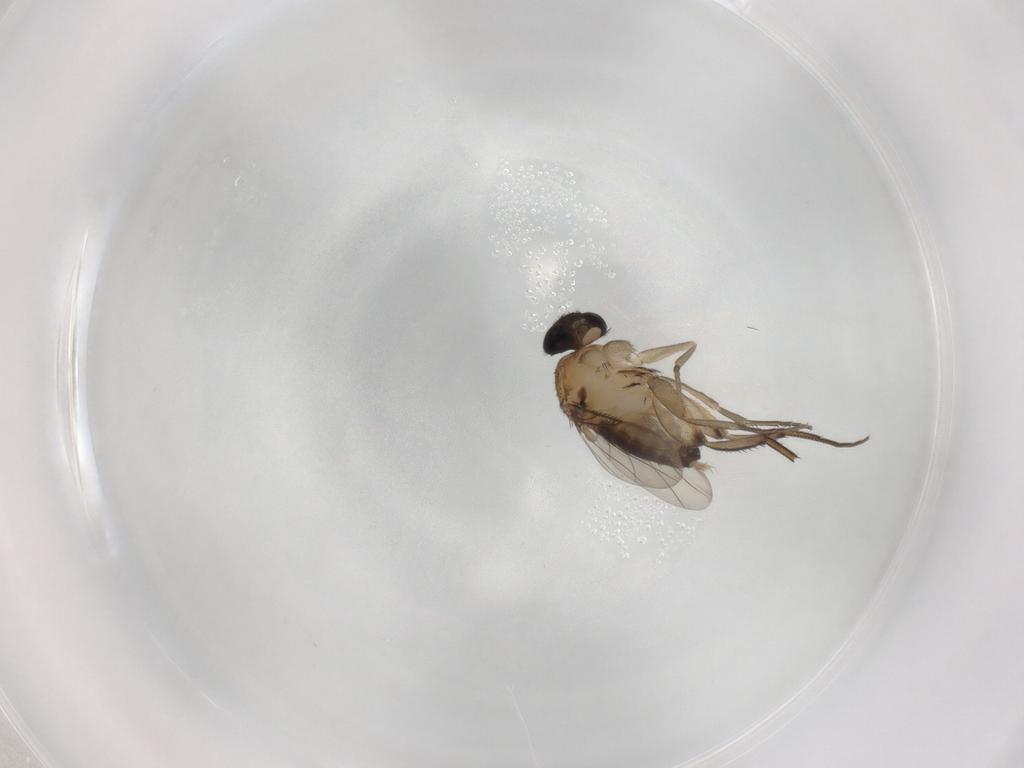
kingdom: Animalia
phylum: Arthropoda
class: Insecta
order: Diptera
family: Phoridae
